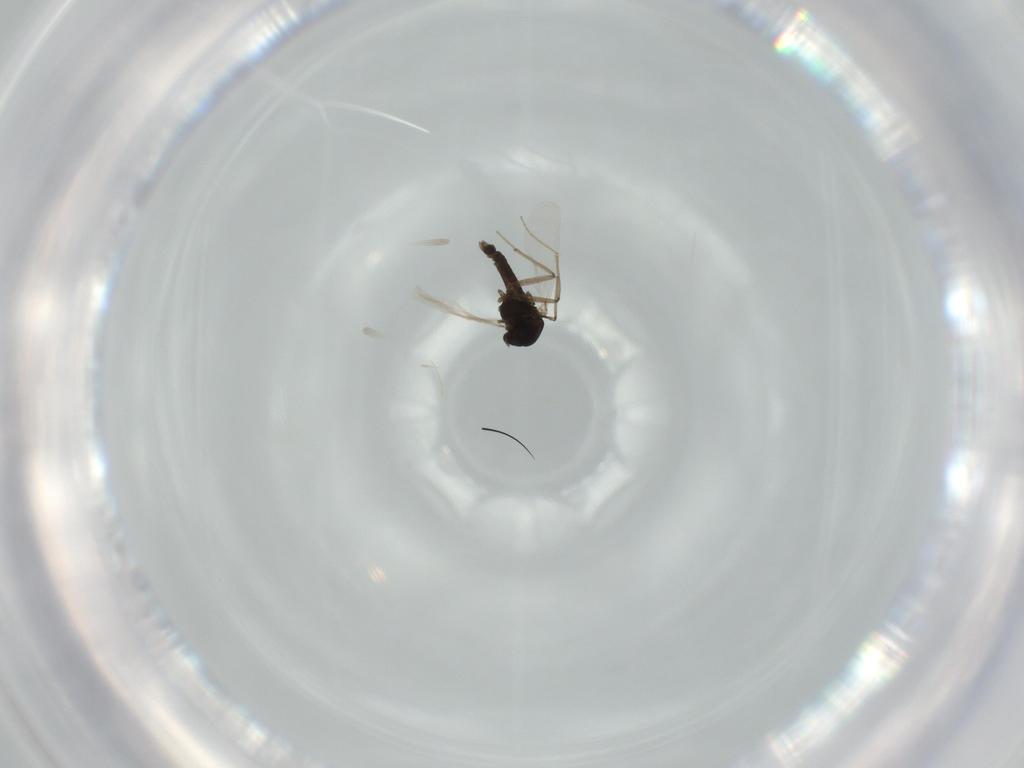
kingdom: Animalia
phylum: Arthropoda
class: Insecta
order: Diptera
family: Chironomidae
